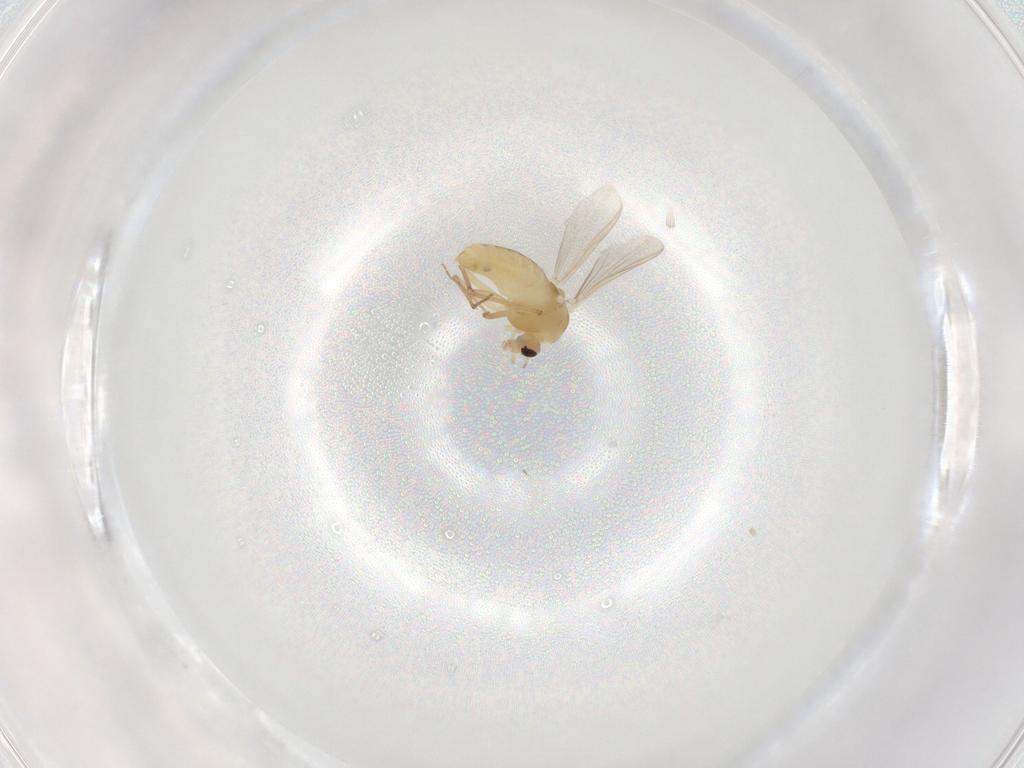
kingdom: Animalia
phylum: Arthropoda
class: Insecta
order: Diptera
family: Chironomidae
